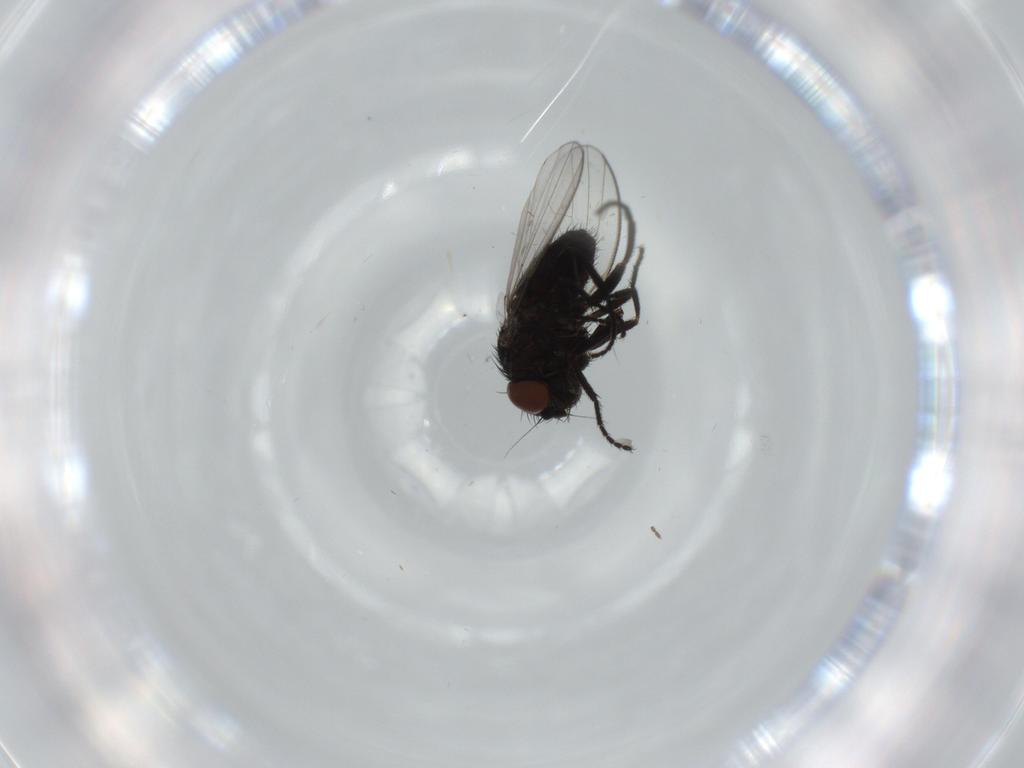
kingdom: Animalia
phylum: Arthropoda
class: Insecta
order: Diptera
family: Milichiidae
